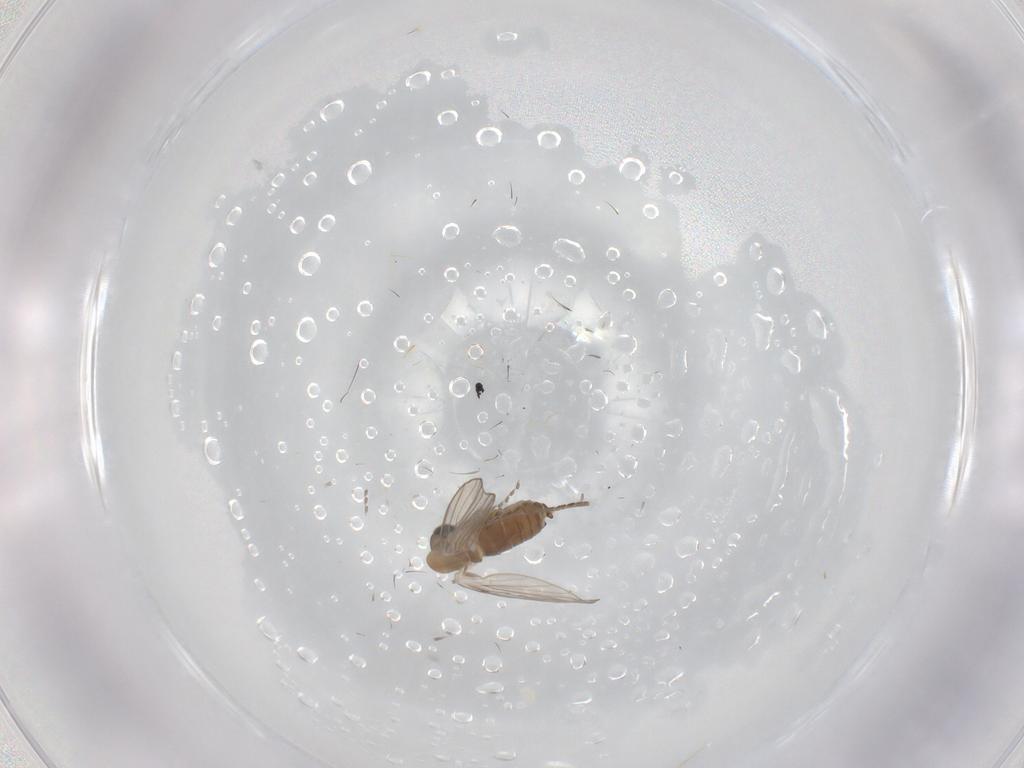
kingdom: Animalia
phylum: Arthropoda
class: Insecta
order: Diptera
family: Psychodidae
